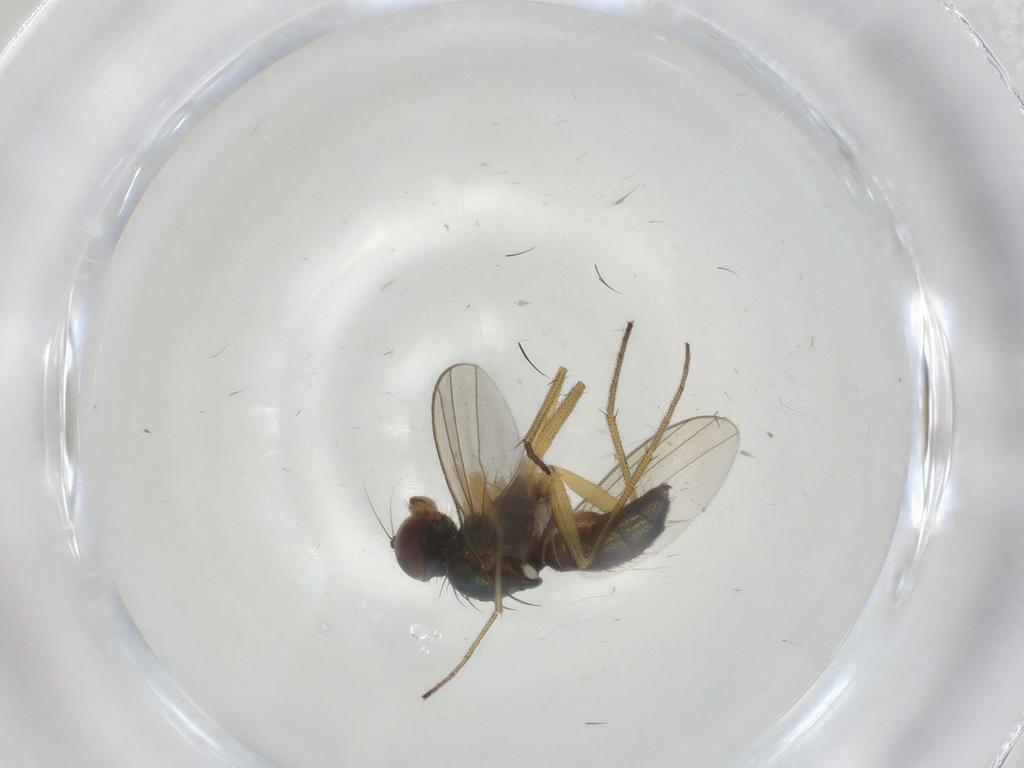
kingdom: Animalia
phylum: Arthropoda
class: Insecta
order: Diptera
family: Dolichopodidae
